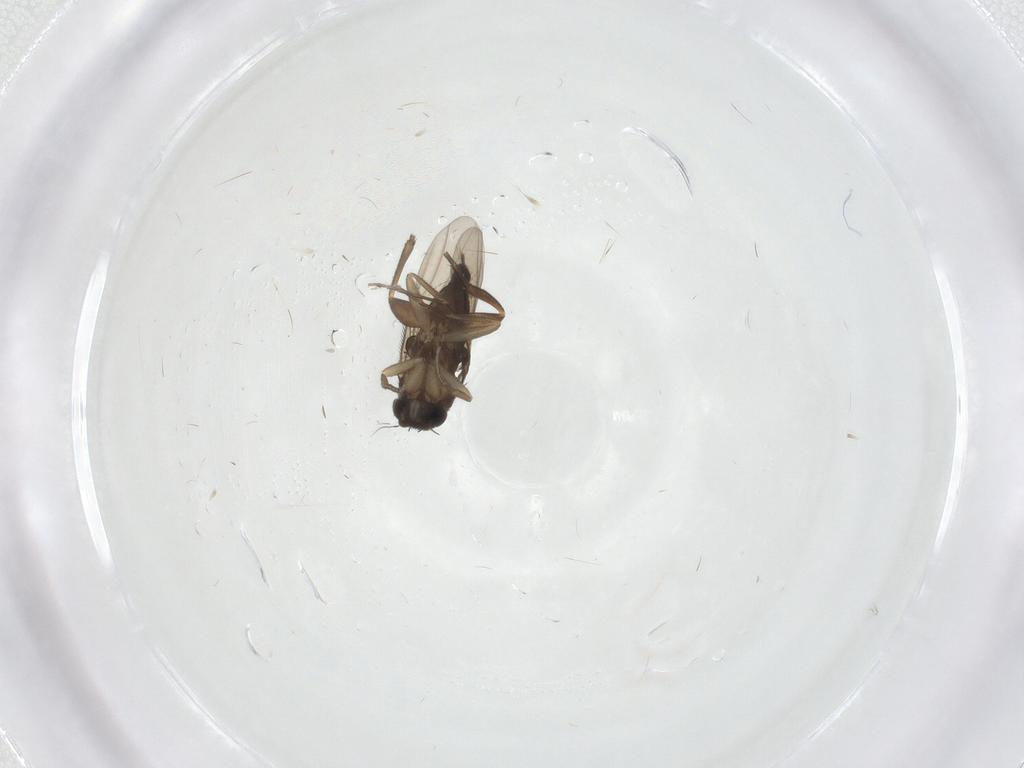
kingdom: Animalia
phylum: Arthropoda
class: Insecta
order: Diptera
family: Phoridae
